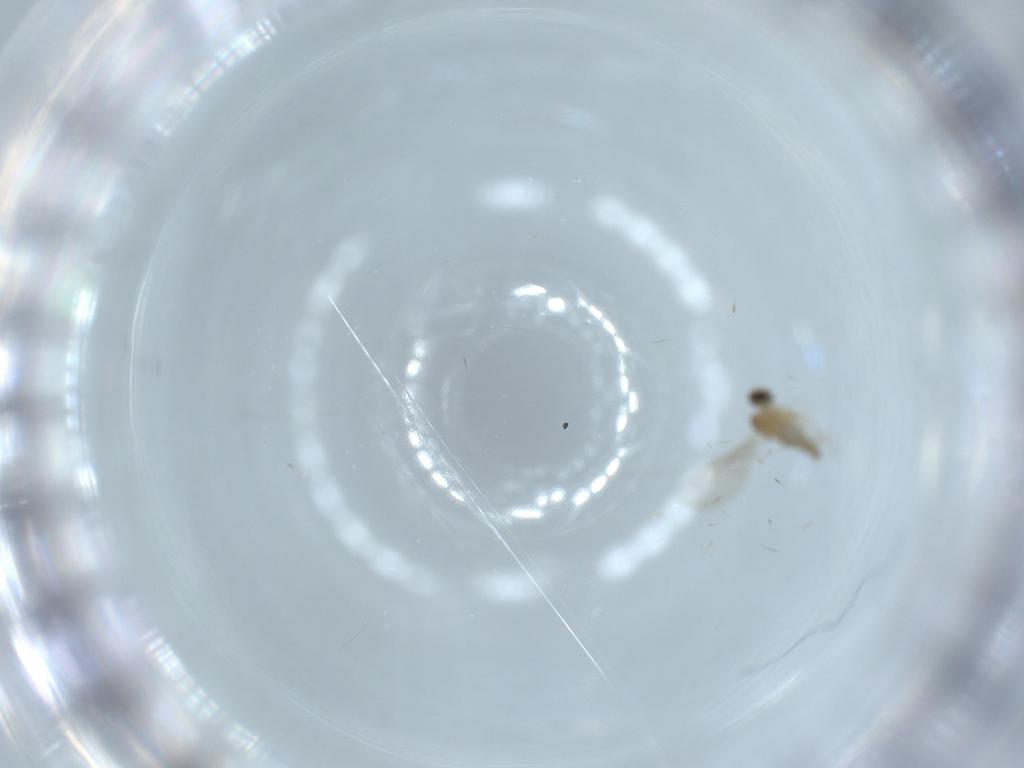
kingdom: Animalia
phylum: Arthropoda
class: Insecta
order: Diptera
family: Cecidomyiidae
